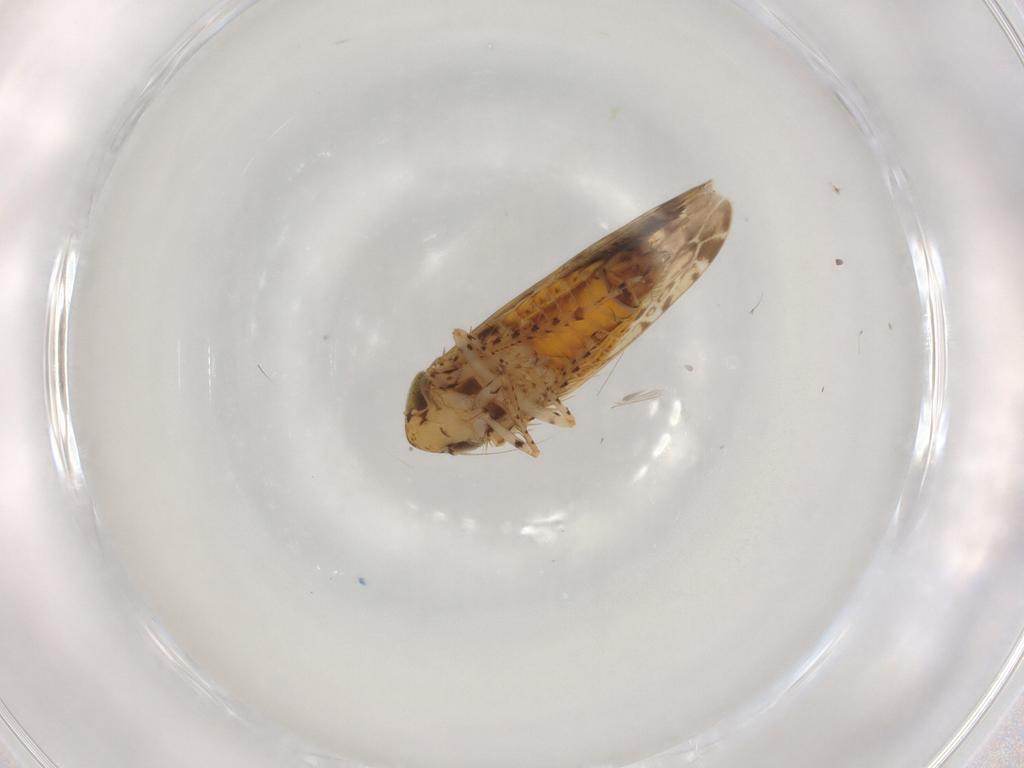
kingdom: Animalia
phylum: Arthropoda
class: Insecta
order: Hemiptera
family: Cicadellidae
